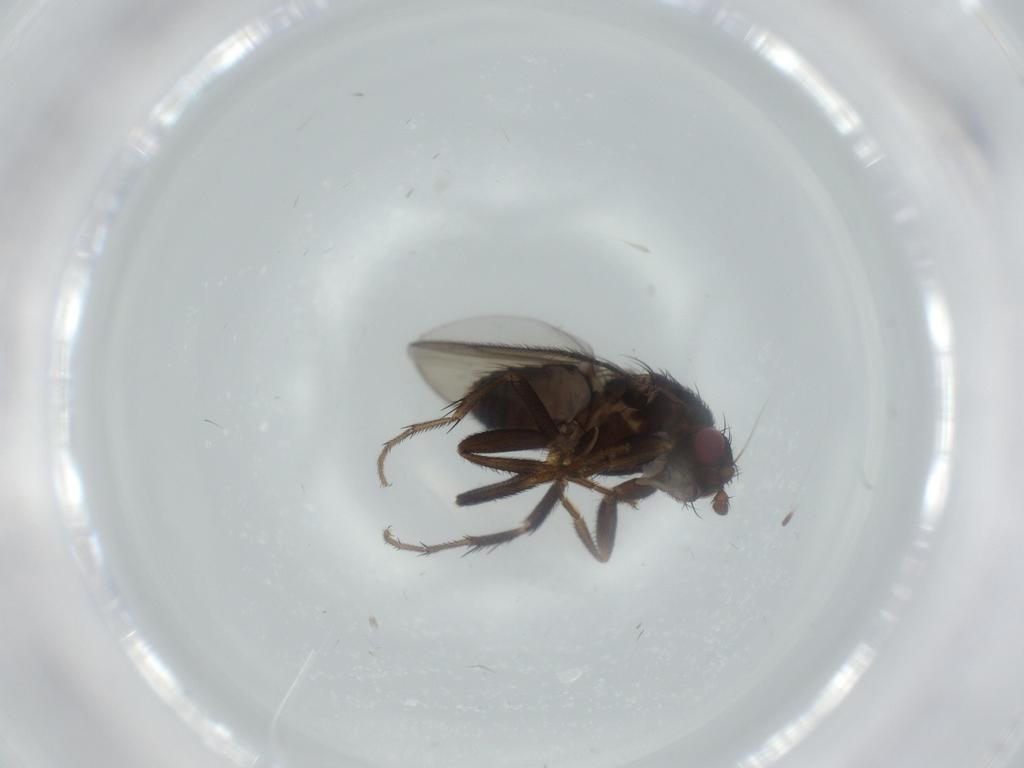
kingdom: Animalia
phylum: Arthropoda
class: Insecta
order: Diptera
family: Sphaeroceridae
